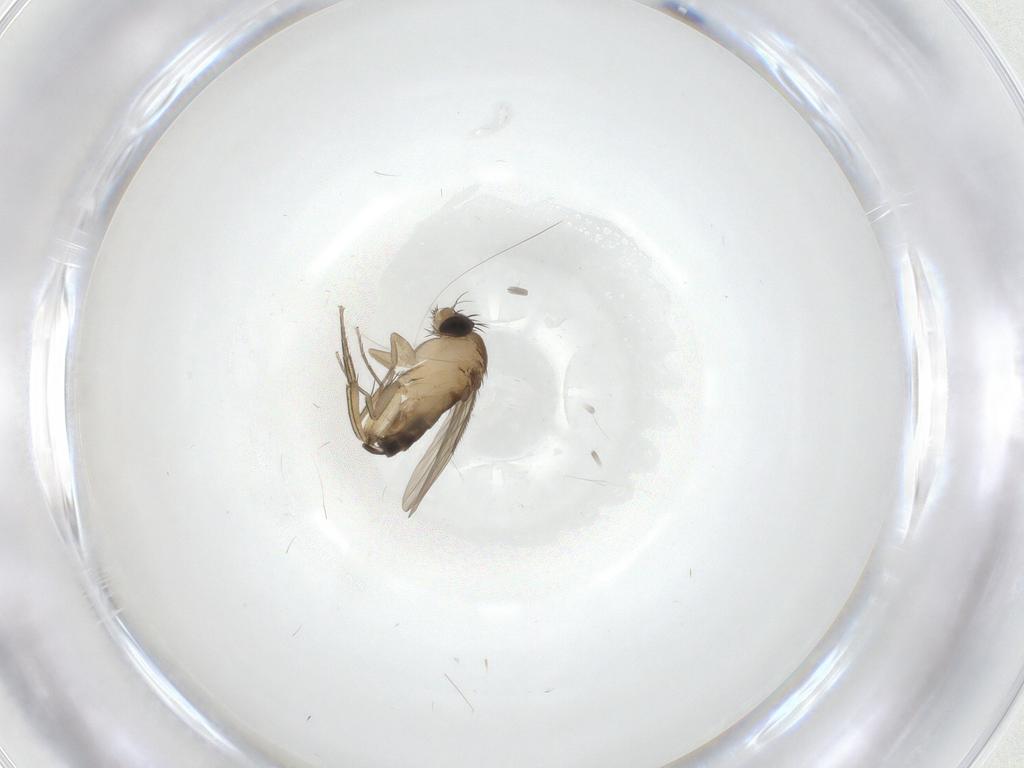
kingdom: Animalia
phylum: Arthropoda
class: Insecta
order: Diptera
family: Phoridae
